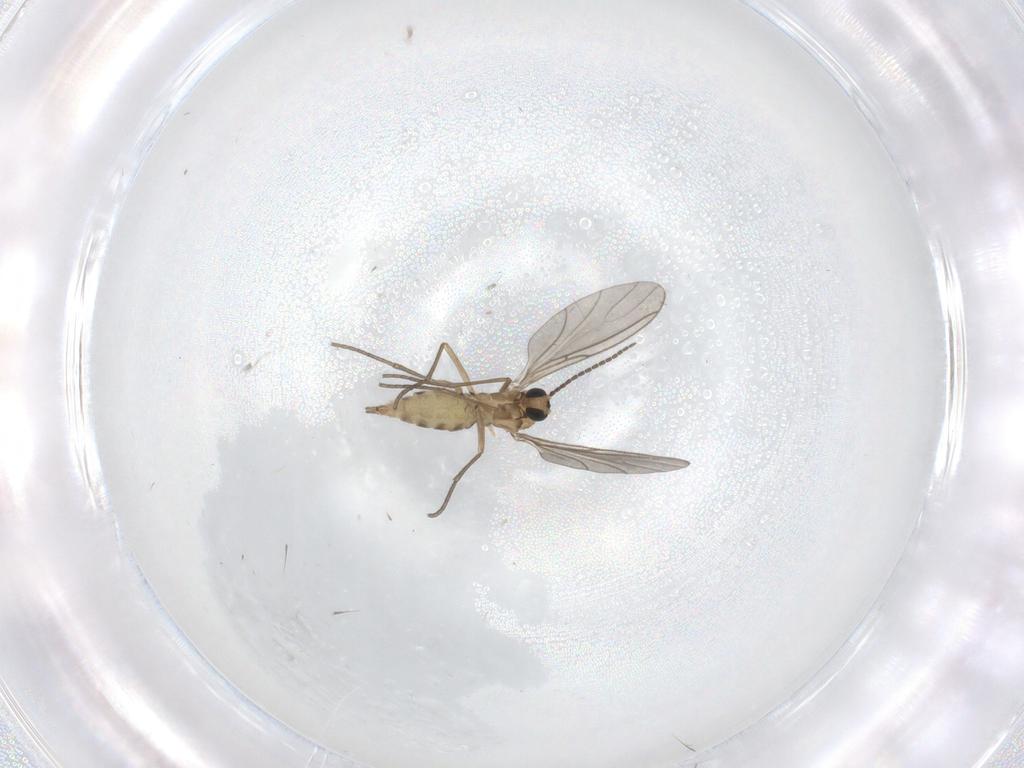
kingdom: Animalia
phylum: Arthropoda
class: Insecta
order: Diptera
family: Sciaridae
